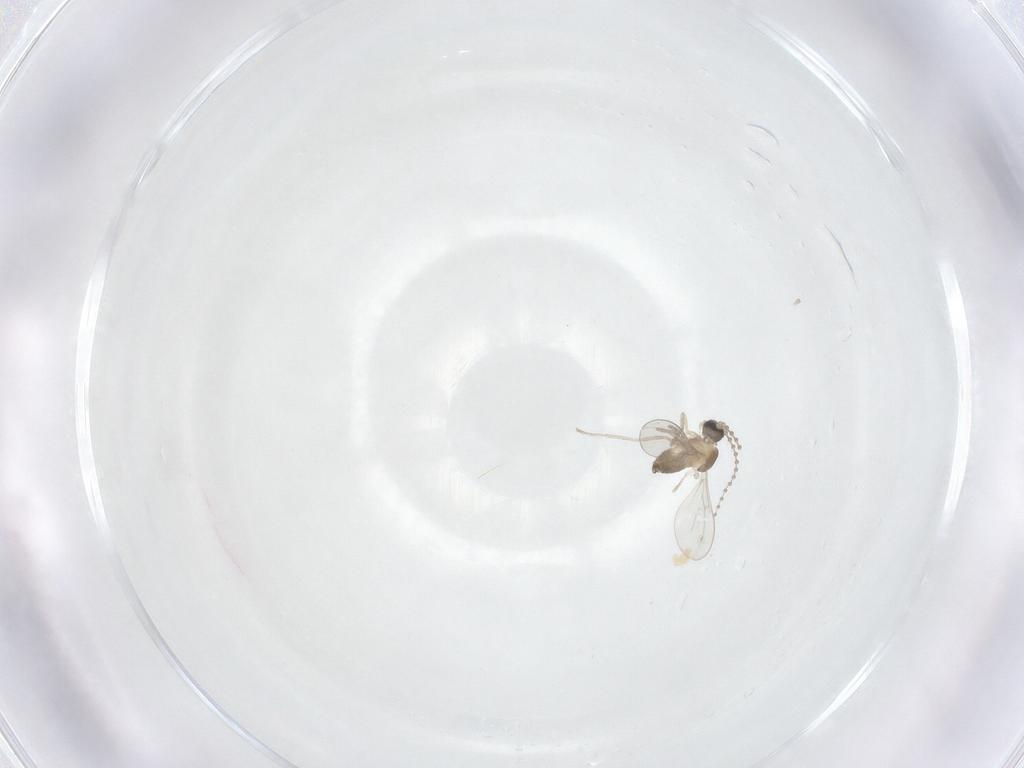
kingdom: Animalia
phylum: Arthropoda
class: Insecta
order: Diptera
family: Cecidomyiidae
